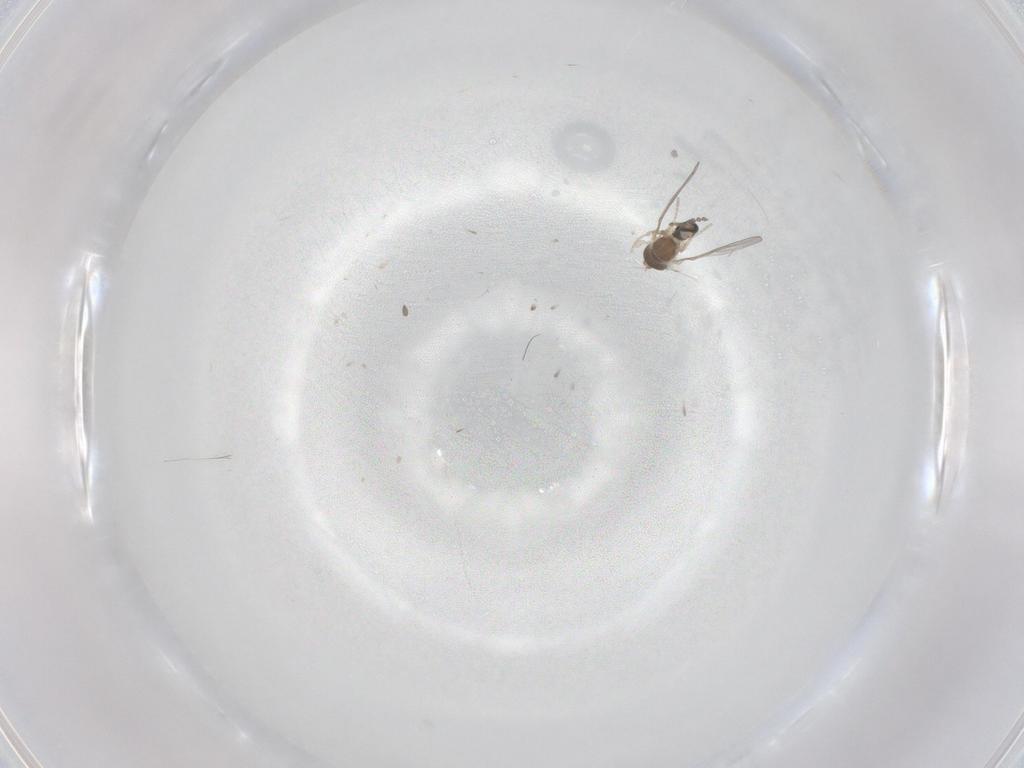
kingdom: Animalia
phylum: Arthropoda
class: Insecta
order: Diptera
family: Cecidomyiidae
